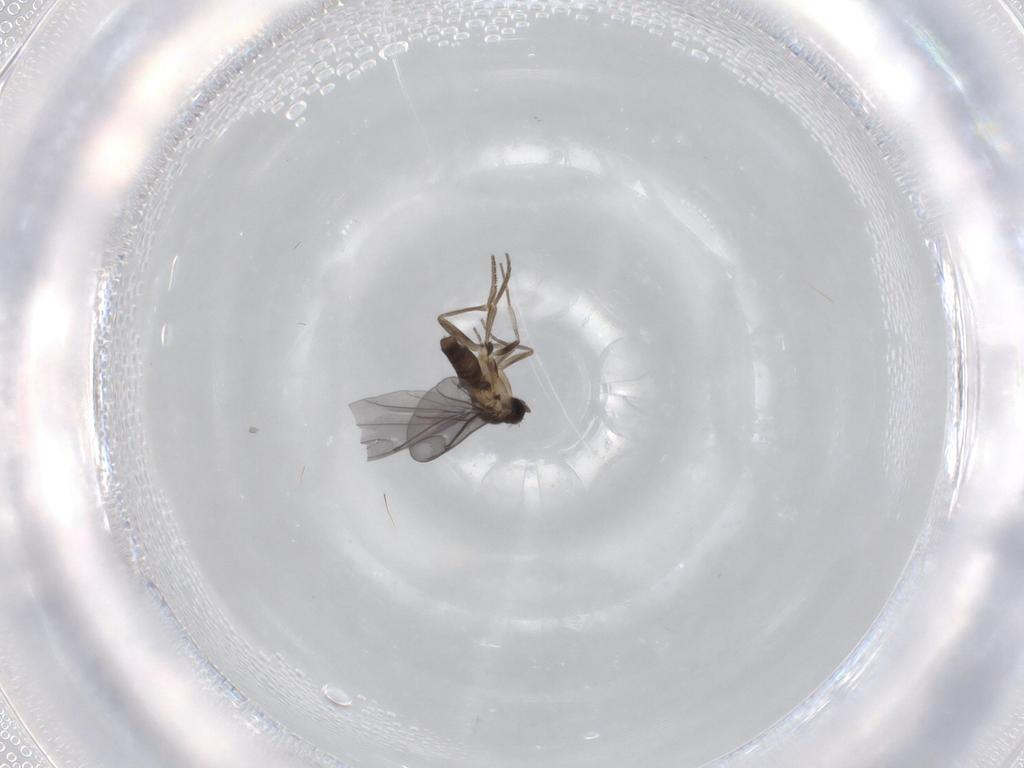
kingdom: Animalia
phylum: Arthropoda
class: Insecta
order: Diptera
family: Phoridae
